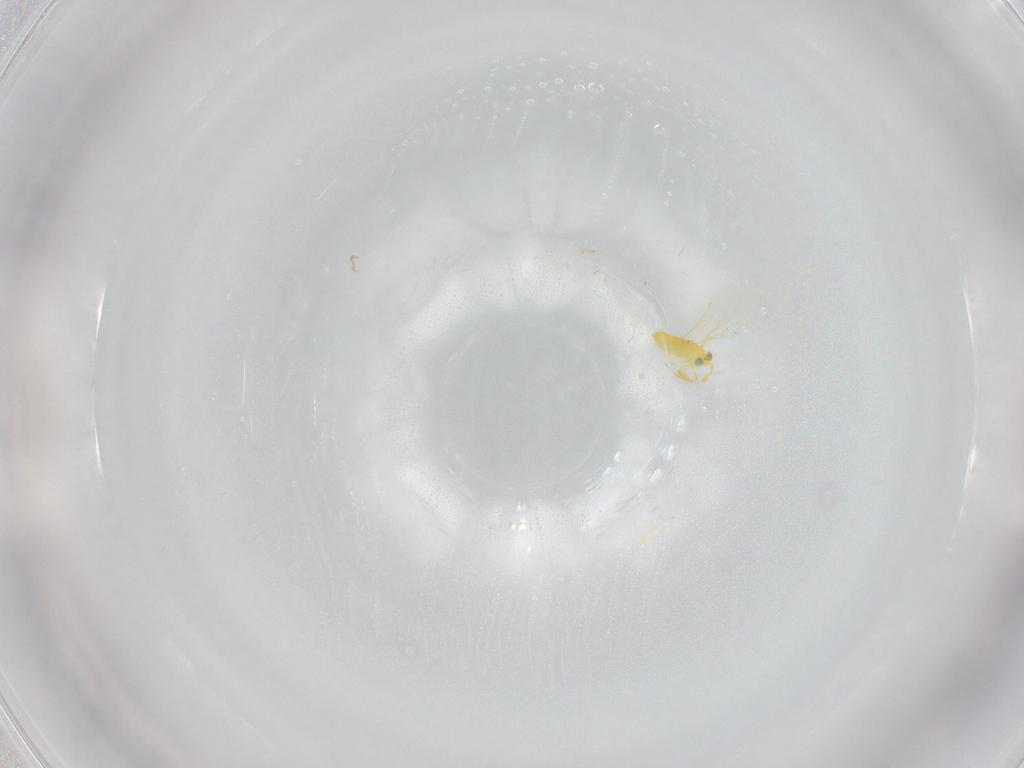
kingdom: Animalia
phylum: Arthropoda
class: Insecta
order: Hymenoptera
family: Aphelinidae
